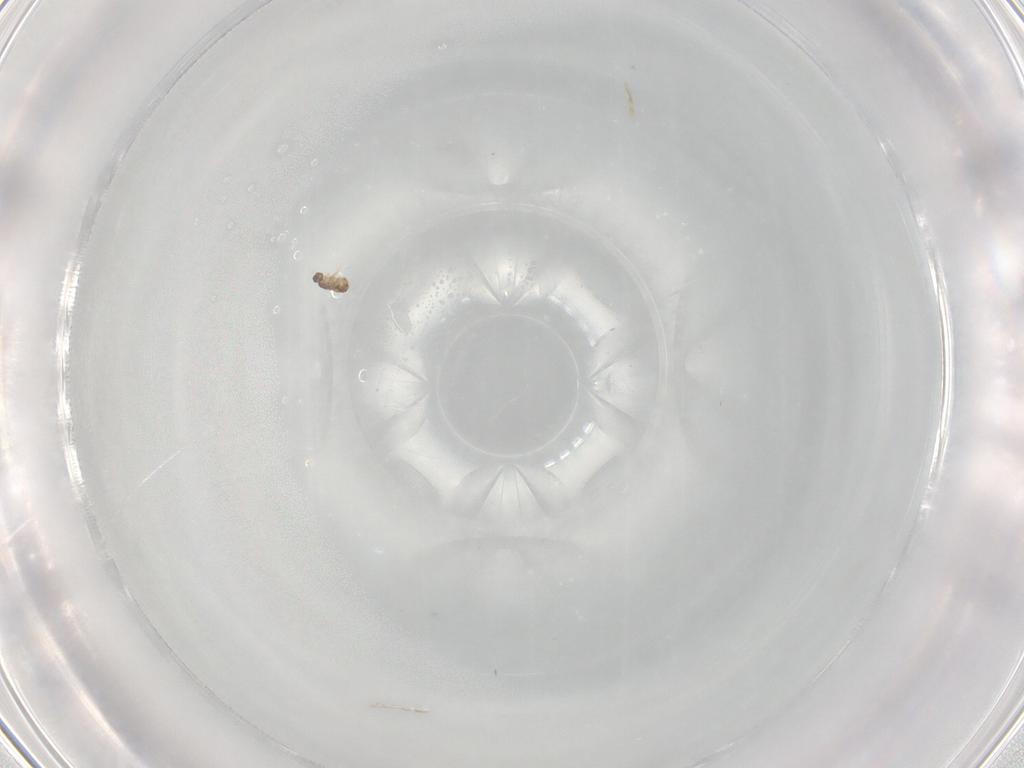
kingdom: Animalia
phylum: Arthropoda
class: Insecta
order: Hymenoptera
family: Mymaridae
